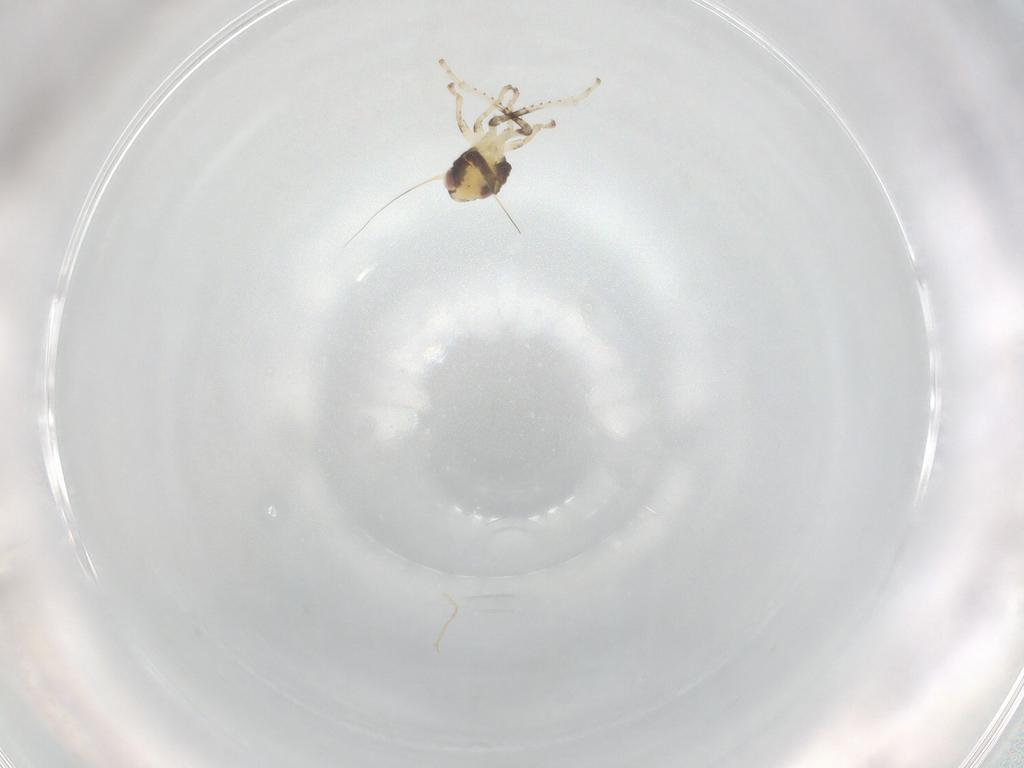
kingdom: Animalia
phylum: Arthropoda
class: Insecta
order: Hemiptera
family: Cicadellidae
